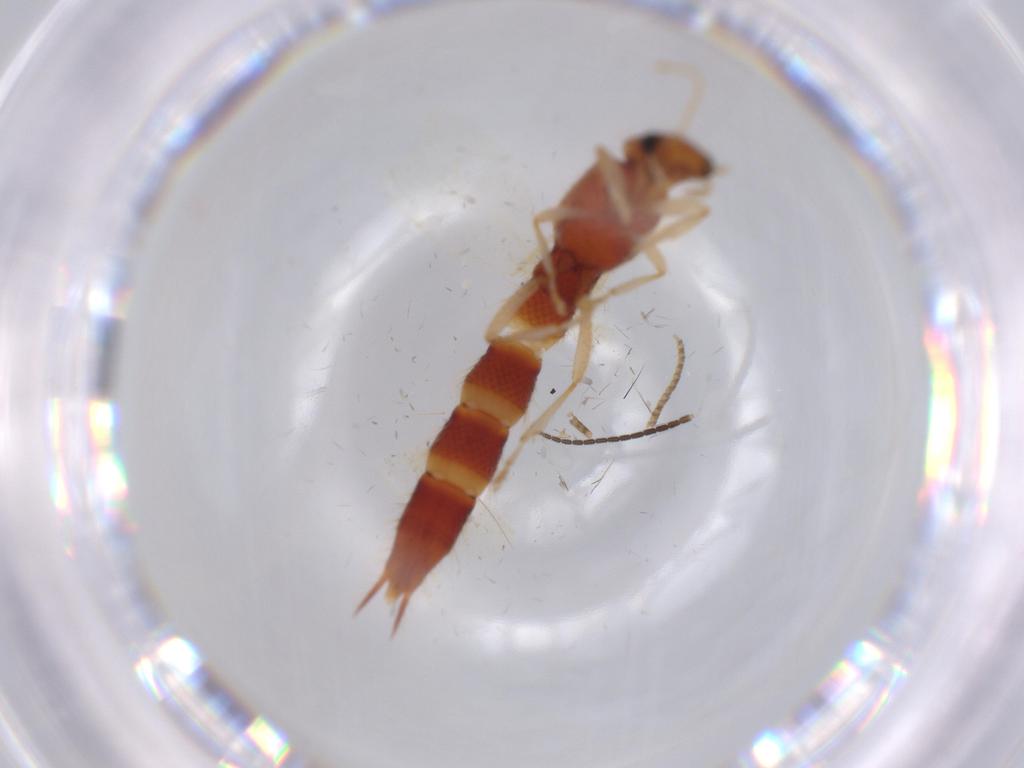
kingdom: Animalia
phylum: Arthropoda
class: Insecta
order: Coleoptera
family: Staphylinidae
